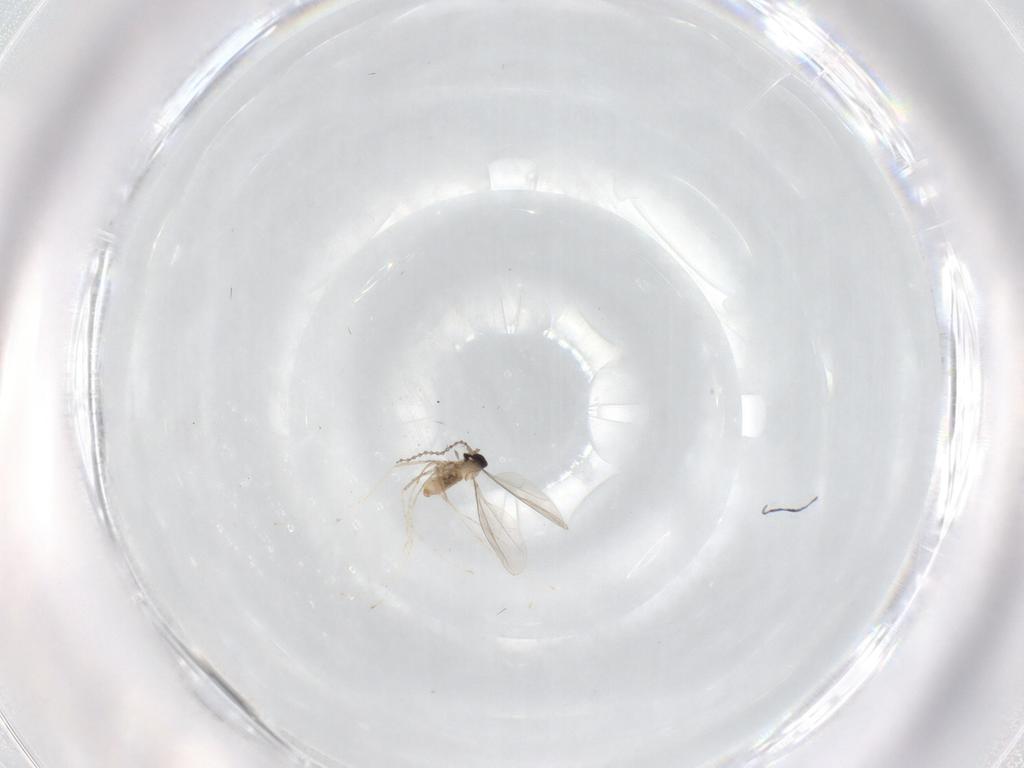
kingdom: Animalia
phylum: Arthropoda
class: Insecta
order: Diptera
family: Cecidomyiidae
